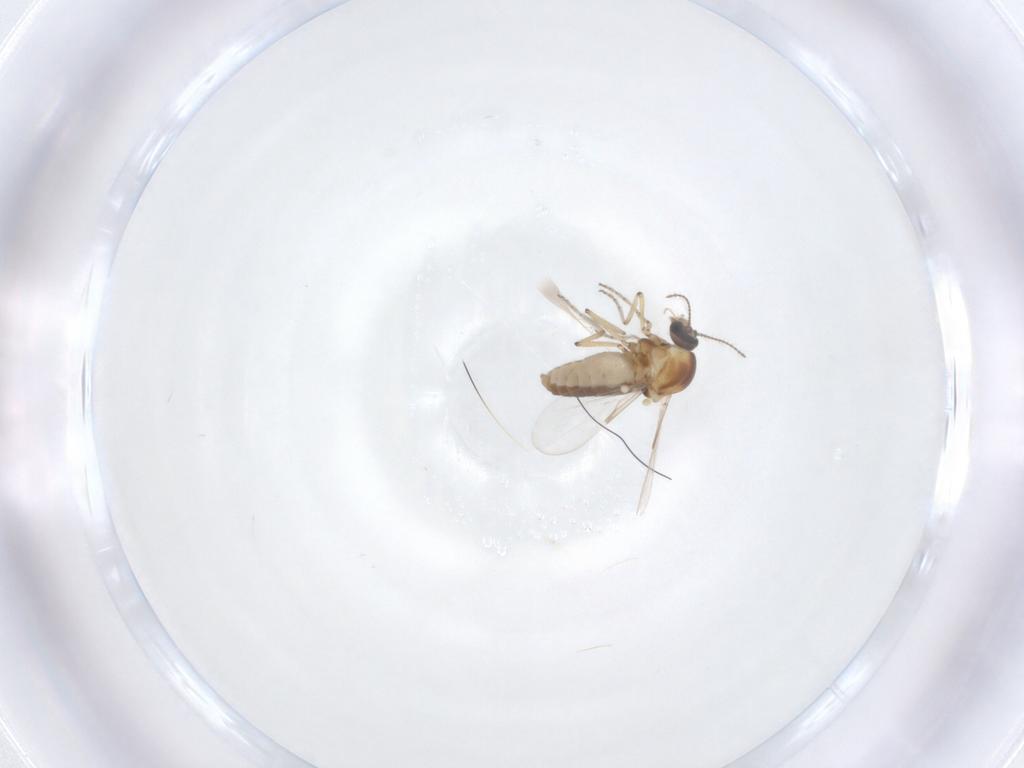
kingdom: Animalia
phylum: Arthropoda
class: Insecta
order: Diptera
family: Ceratopogonidae
